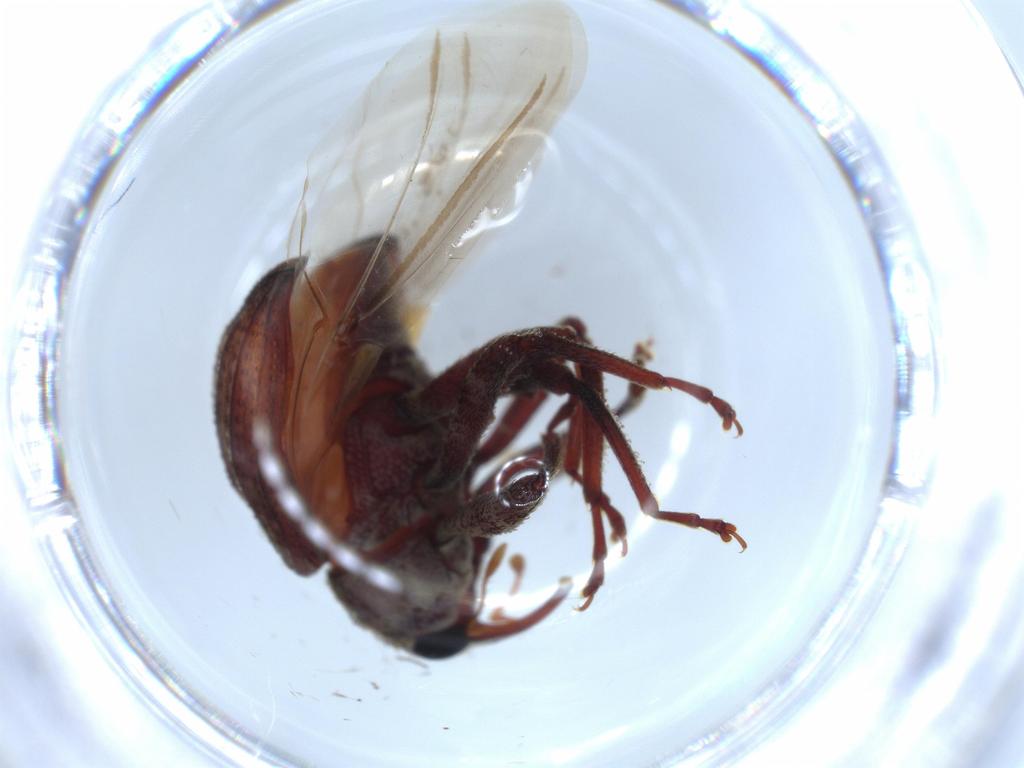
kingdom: Animalia
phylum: Arthropoda
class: Insecta
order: Coleoptera
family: Brentidae
